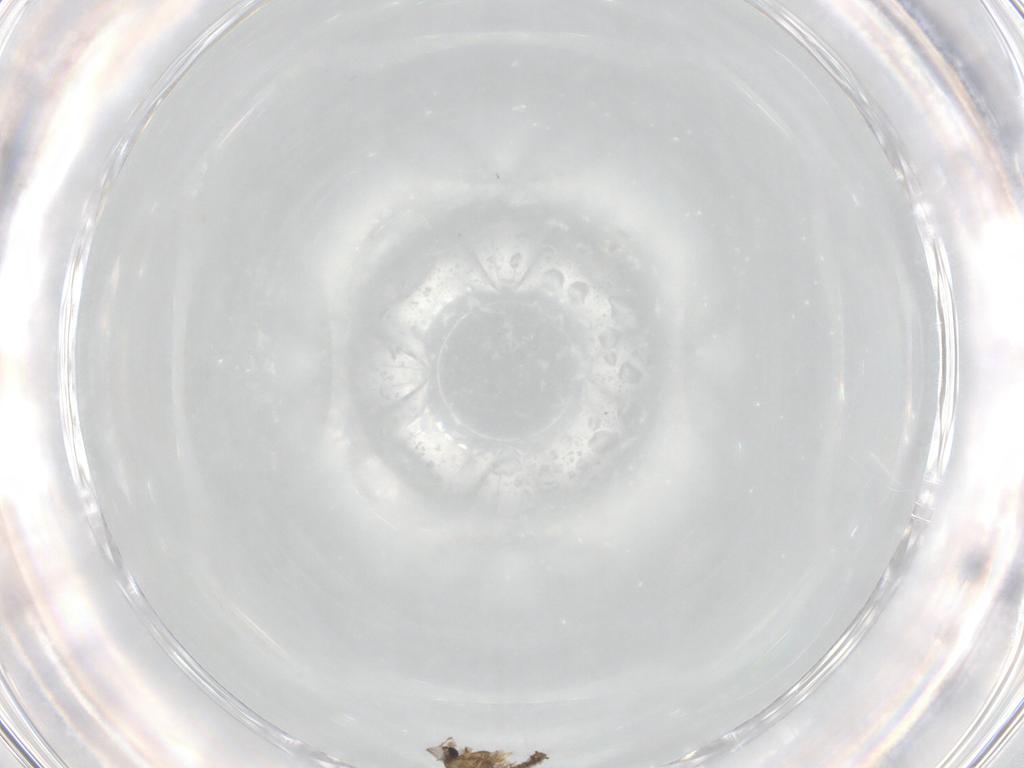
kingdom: Animalia
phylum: Arthropoda
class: Insecta
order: Diptera
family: Chironomidae
